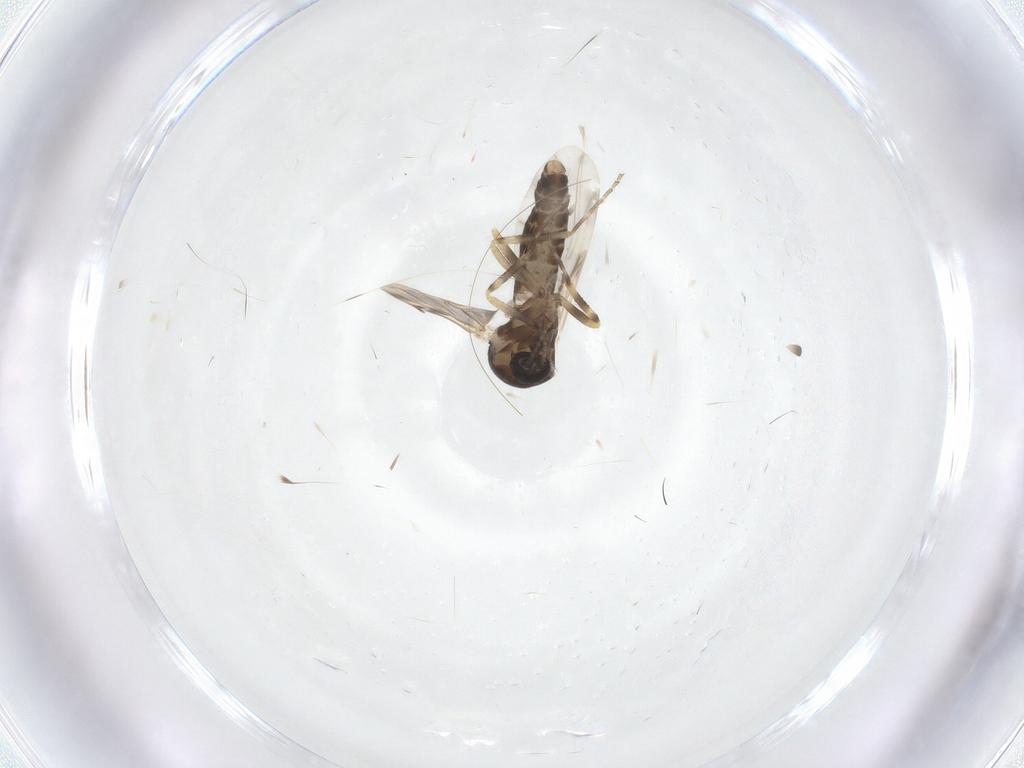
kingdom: Animalia
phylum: Arthropoda
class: Insecta
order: Diptera
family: Ceratopogonidae
